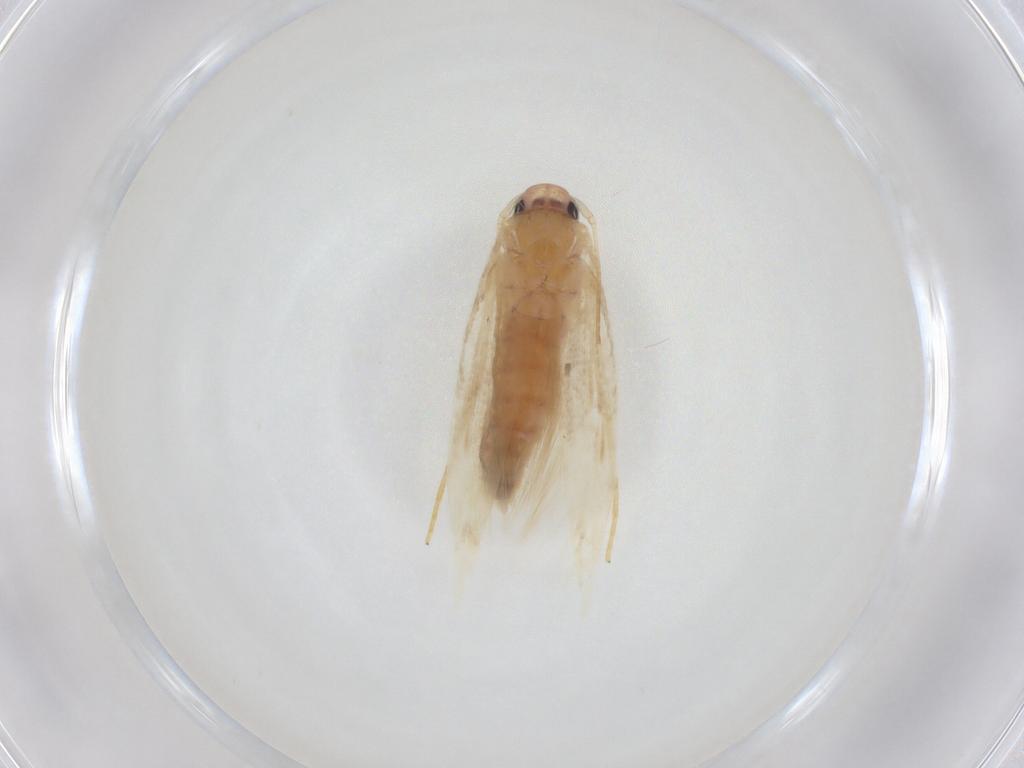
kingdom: Animalia
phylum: Arthropoda
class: Insecta
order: Lepidoptera
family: Erebidae
